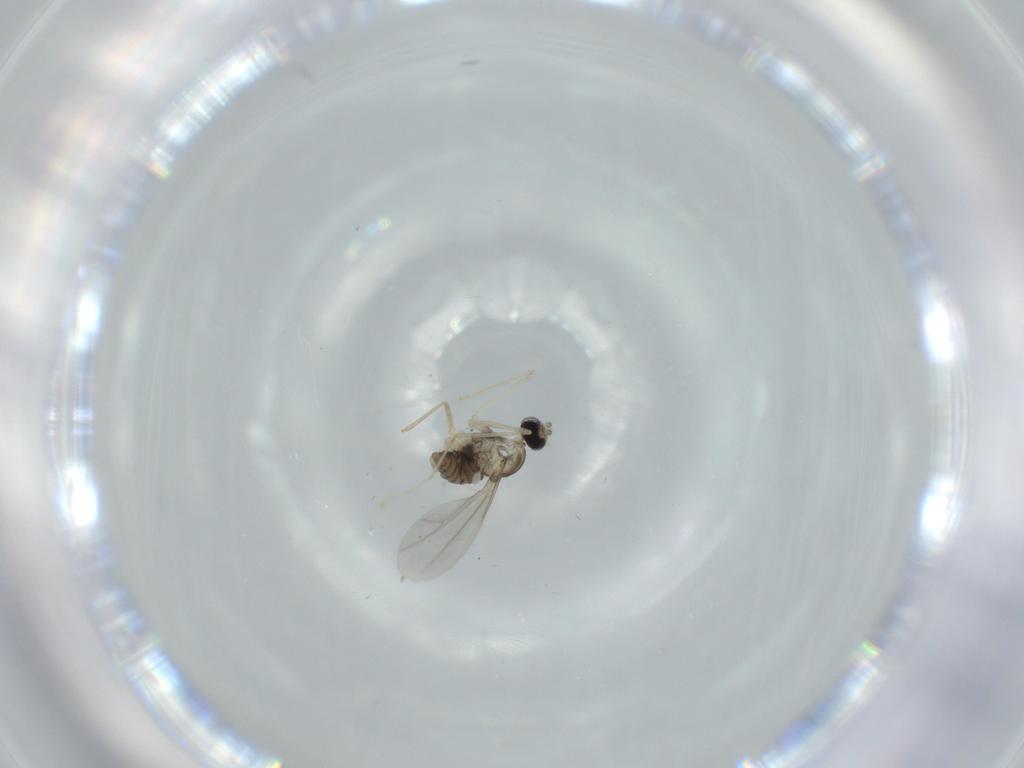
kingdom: Animalia
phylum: Arthropoda
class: Insecta
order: Diptera
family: Cecidomyiidae
